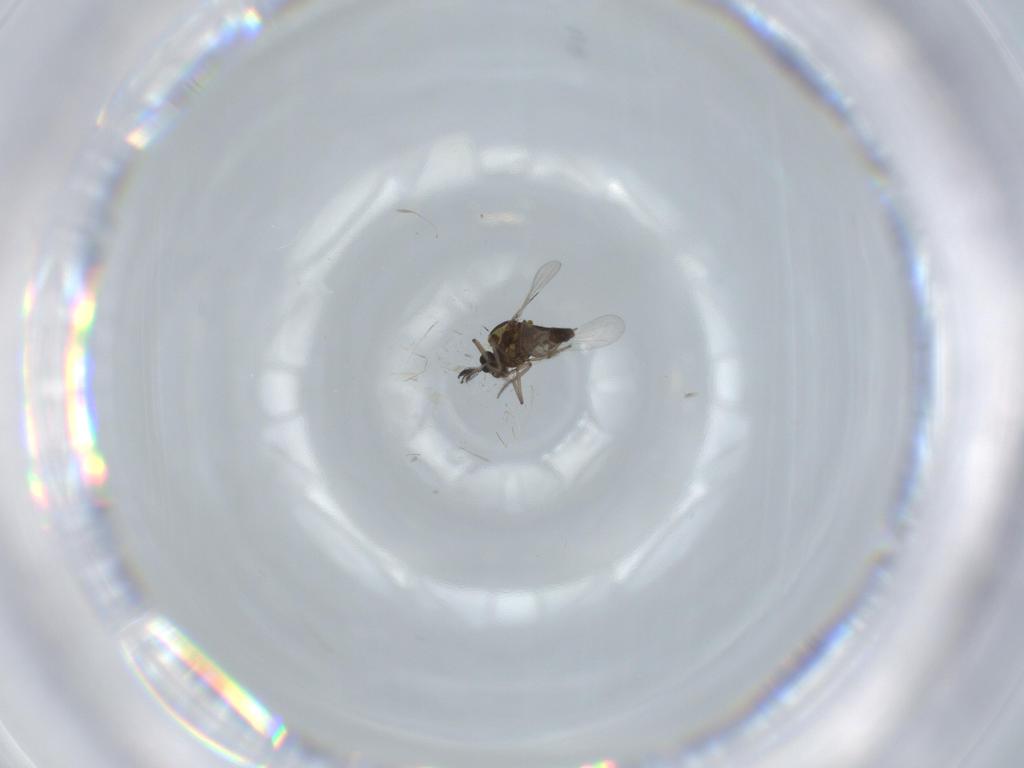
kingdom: Animalia
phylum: Arthropoda
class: Insecta
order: Diptera
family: Ceratopogonidae
